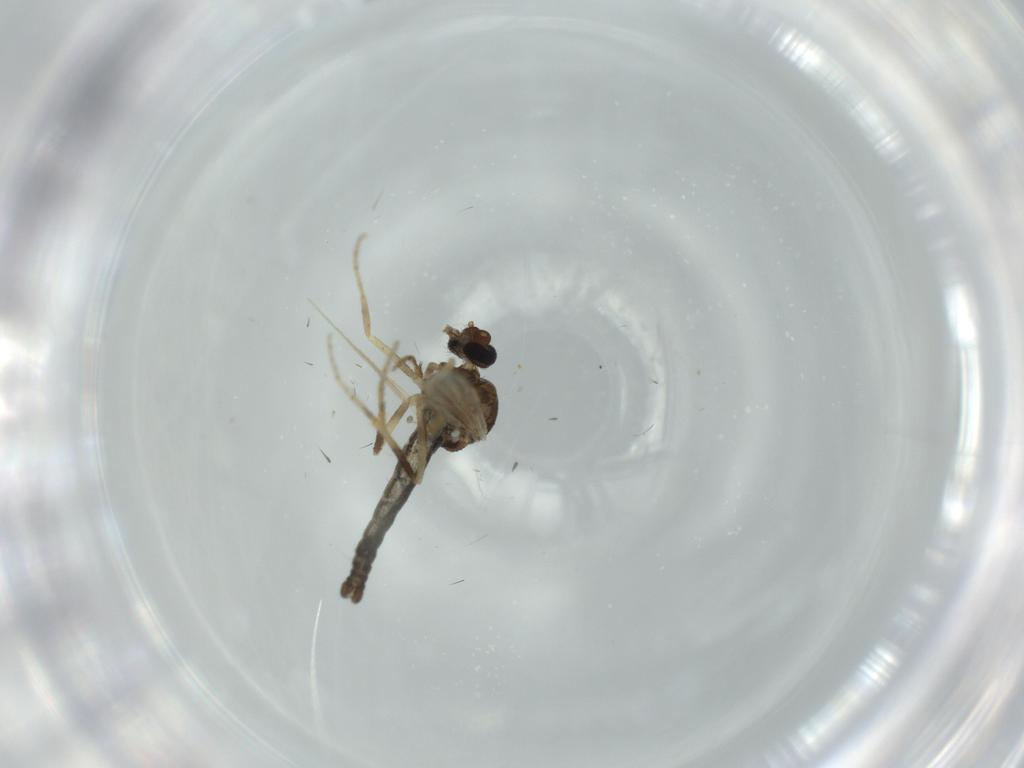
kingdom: Animalia
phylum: Arthropoda
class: Insecta
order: Diptera
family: Ceratopogonidae
